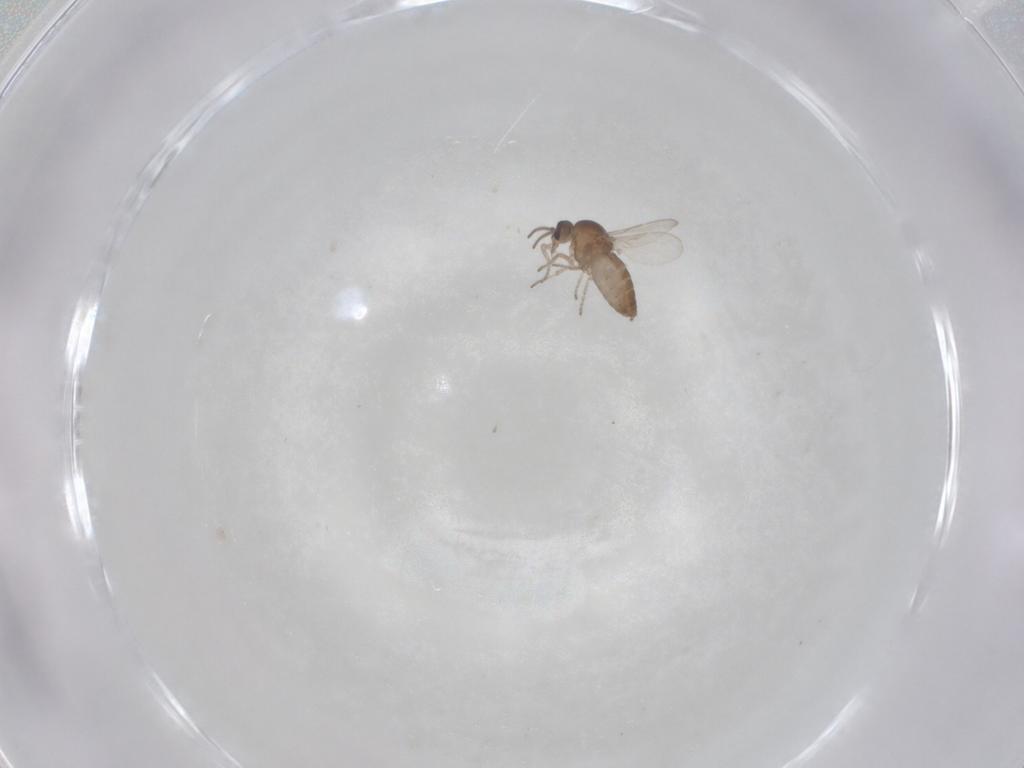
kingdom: Animalia
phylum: Arthropoda
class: Insecta
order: Diptera
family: Ceratopogonidae
